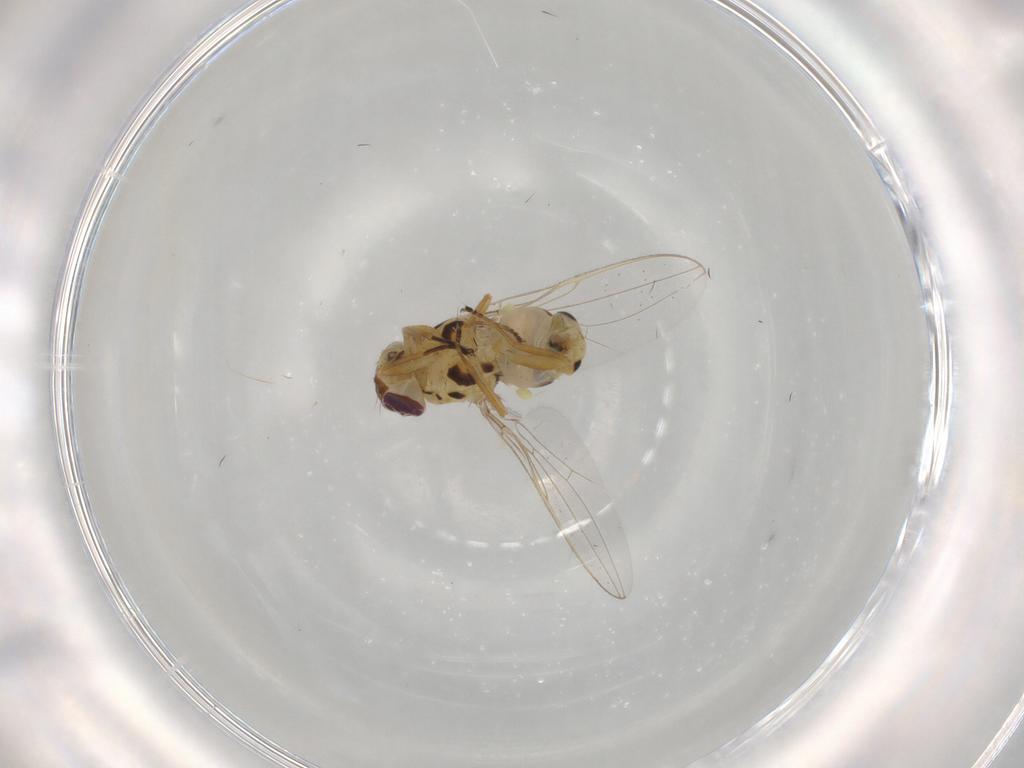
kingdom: Animalia
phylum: Arthropoda
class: Insecta
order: Diptera
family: Asteiidae
